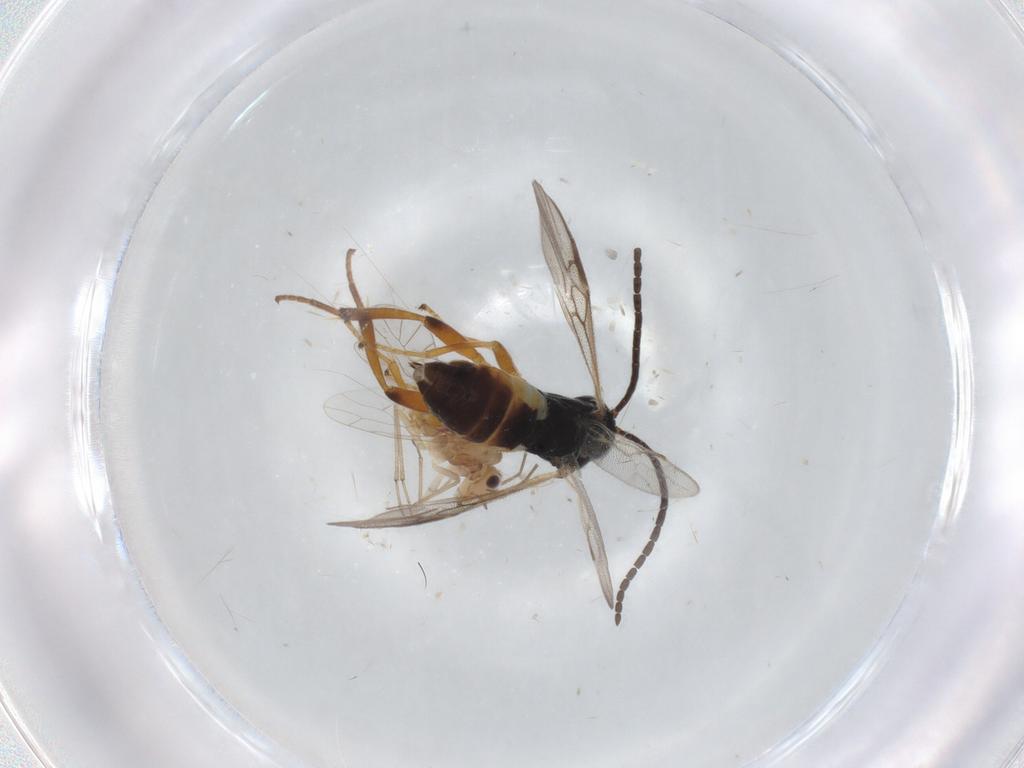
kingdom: Animalia
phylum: Arthropoda
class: Insecta
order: Hymenoptera
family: Braconidae
